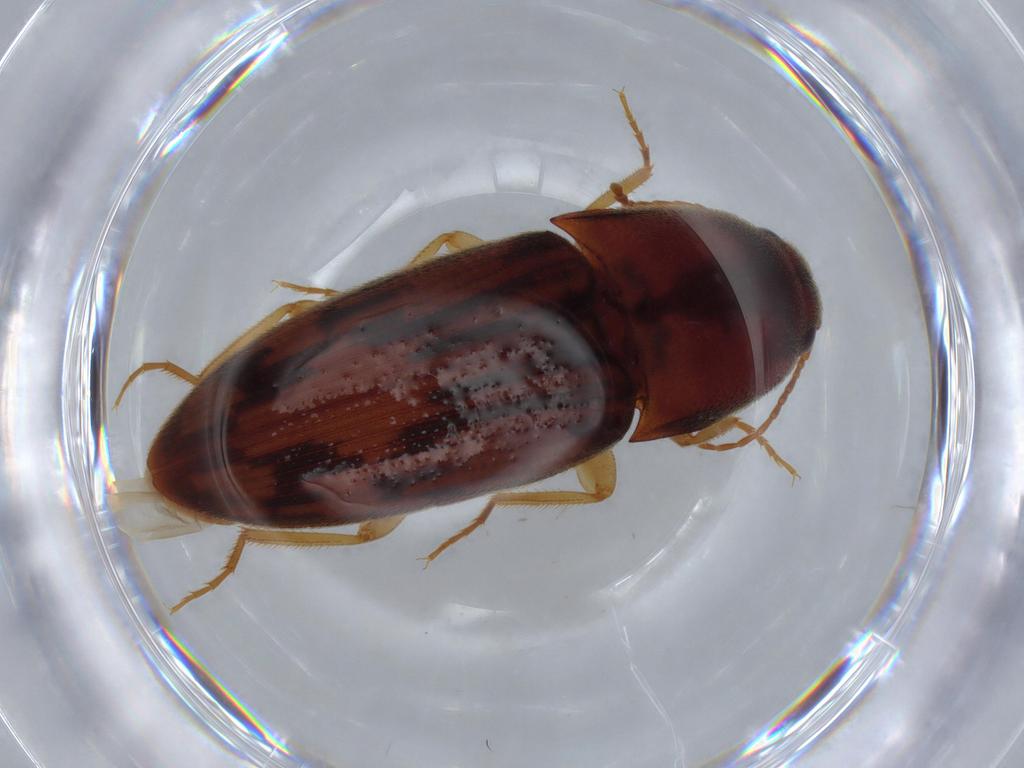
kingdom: Animalia
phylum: Arthropoda
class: Insecta
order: Coleoptera
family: Elateridae
